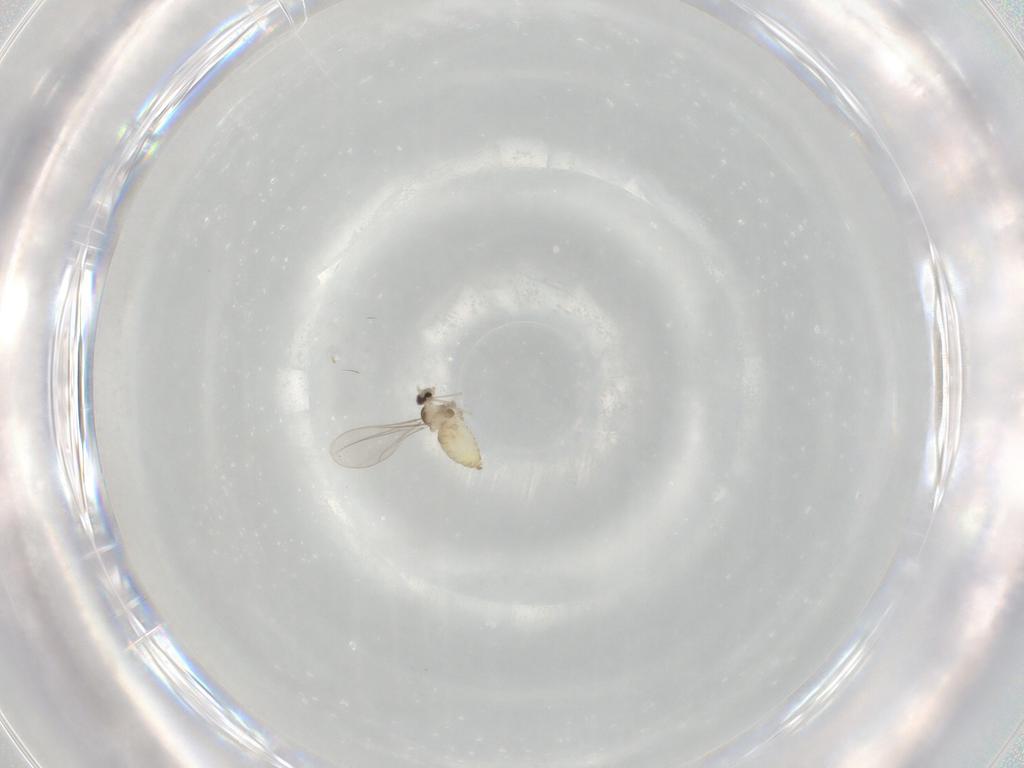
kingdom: Animalia
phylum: Arthropoda
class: Insecta
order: Diptera
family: Cecidomyiidae
